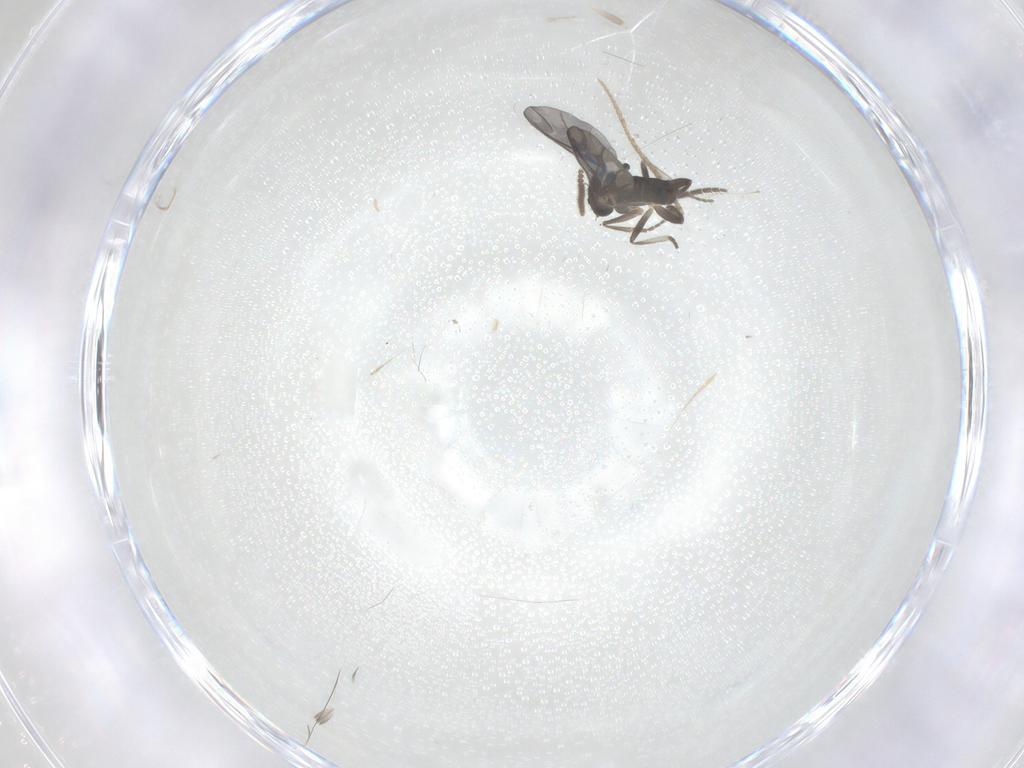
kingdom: Animalia
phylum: Arthropoda
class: Insecta
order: Diptera
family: Phoridae
